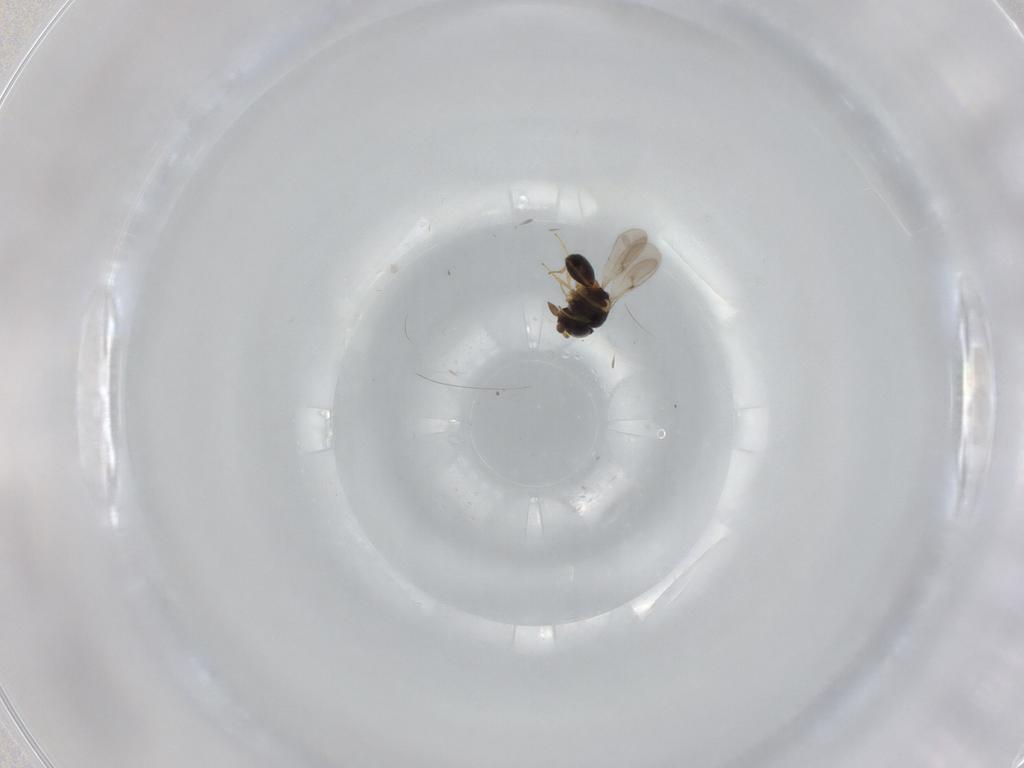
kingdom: Animalia
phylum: Arthropoda
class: Insecta
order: Hymenoptera
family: Scelionidae
